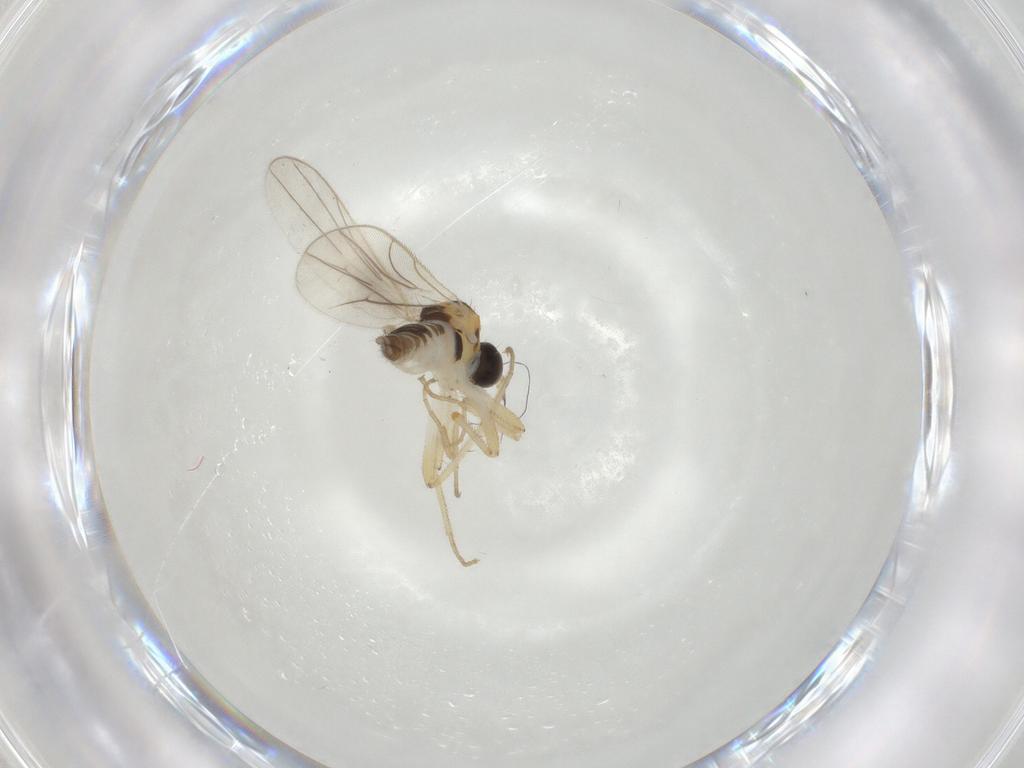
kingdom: Animalia
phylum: Arthropoda
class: Insecta
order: Diptera
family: Hybotidae
